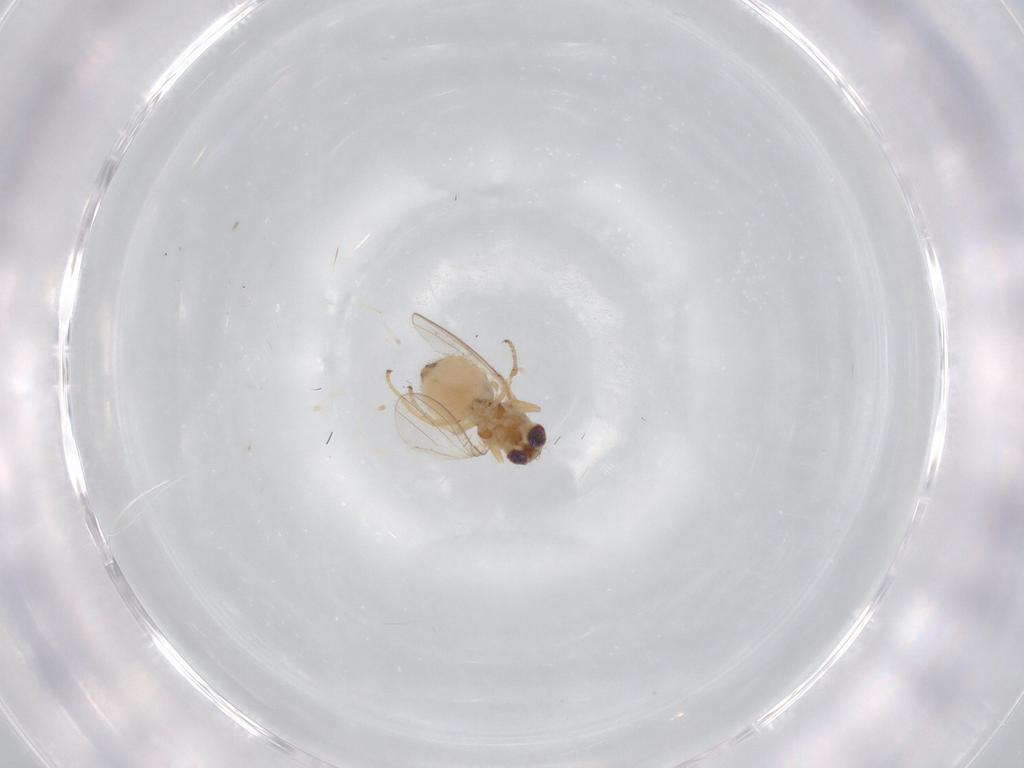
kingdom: Animalia
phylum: Arthropoda
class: Insecta
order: Diptera
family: Chyromyidae
